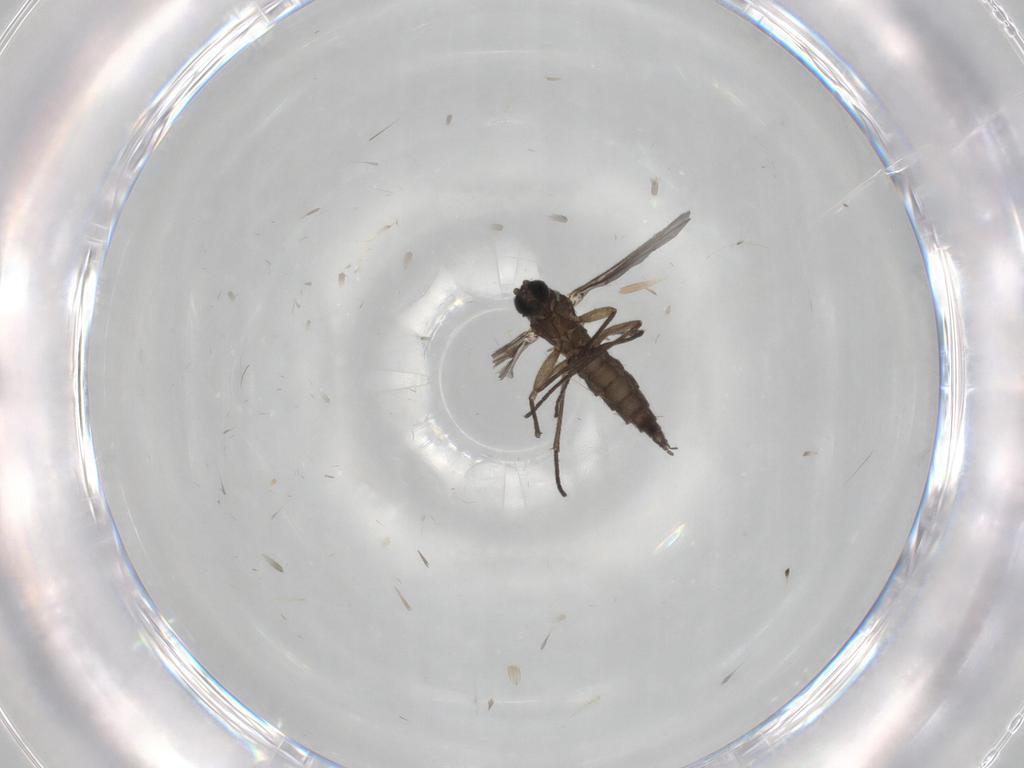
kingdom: Animalia
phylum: Arthropoda
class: Insecta
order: Diptera
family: Sciaridae
